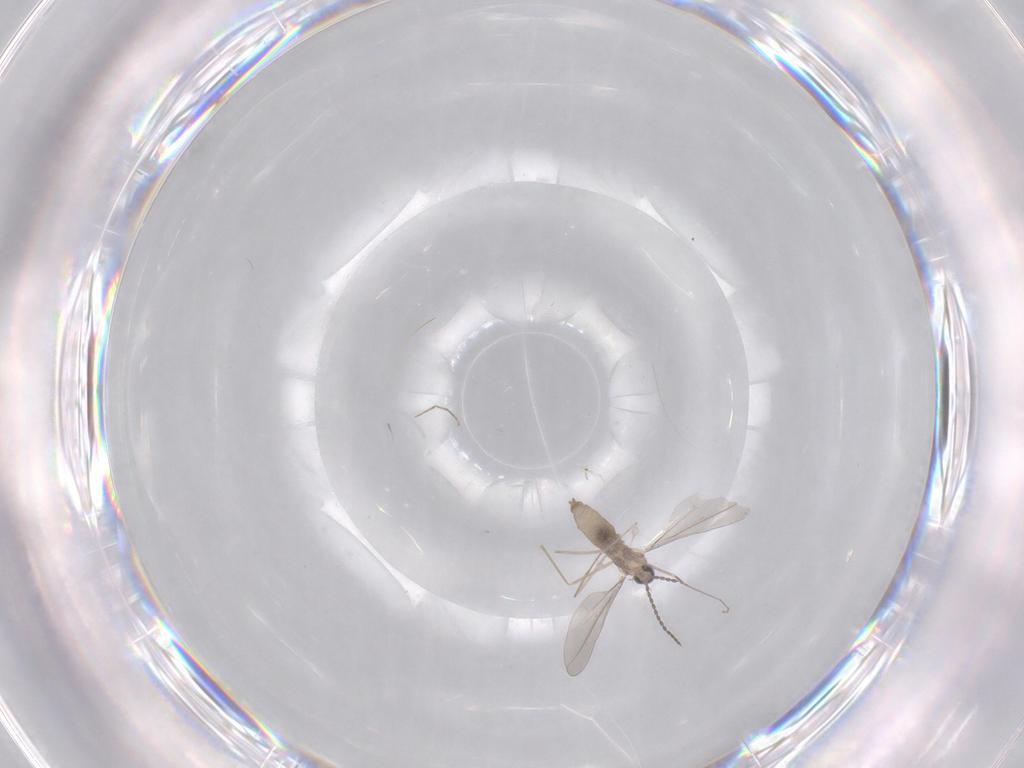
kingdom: Animalia
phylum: Arthropoda
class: Insecta
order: Diptera
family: Cecidomyiidae
